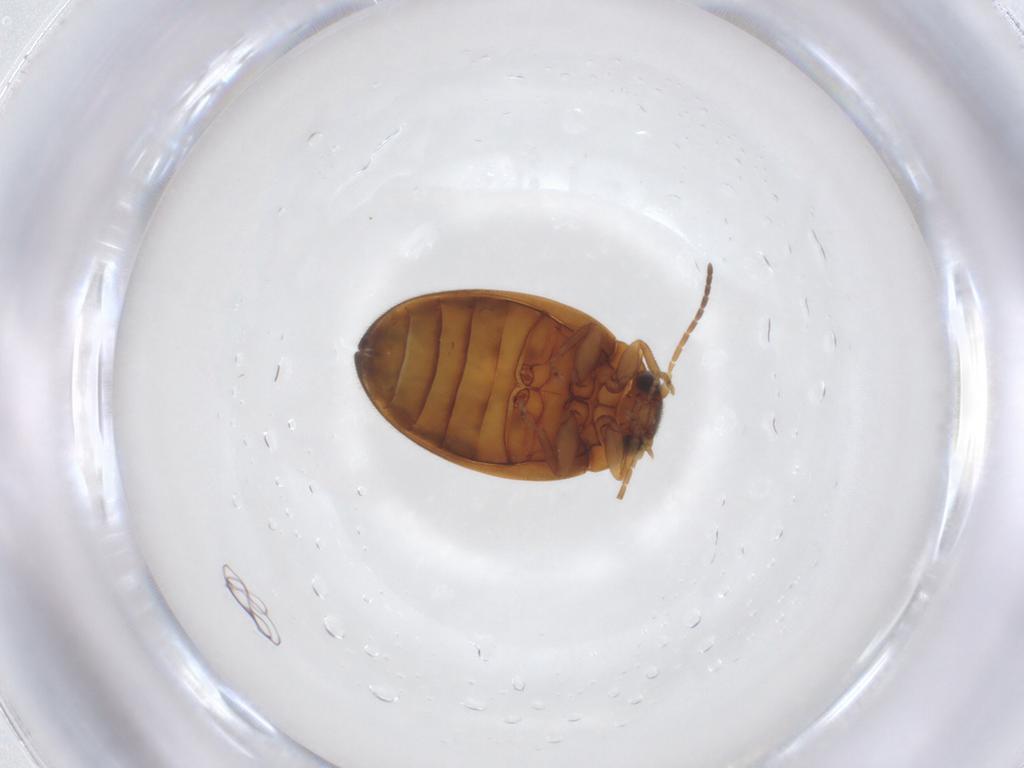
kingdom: Animalia
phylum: Arthropoda
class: Insecta
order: Coleoptera
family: Scirtidae
